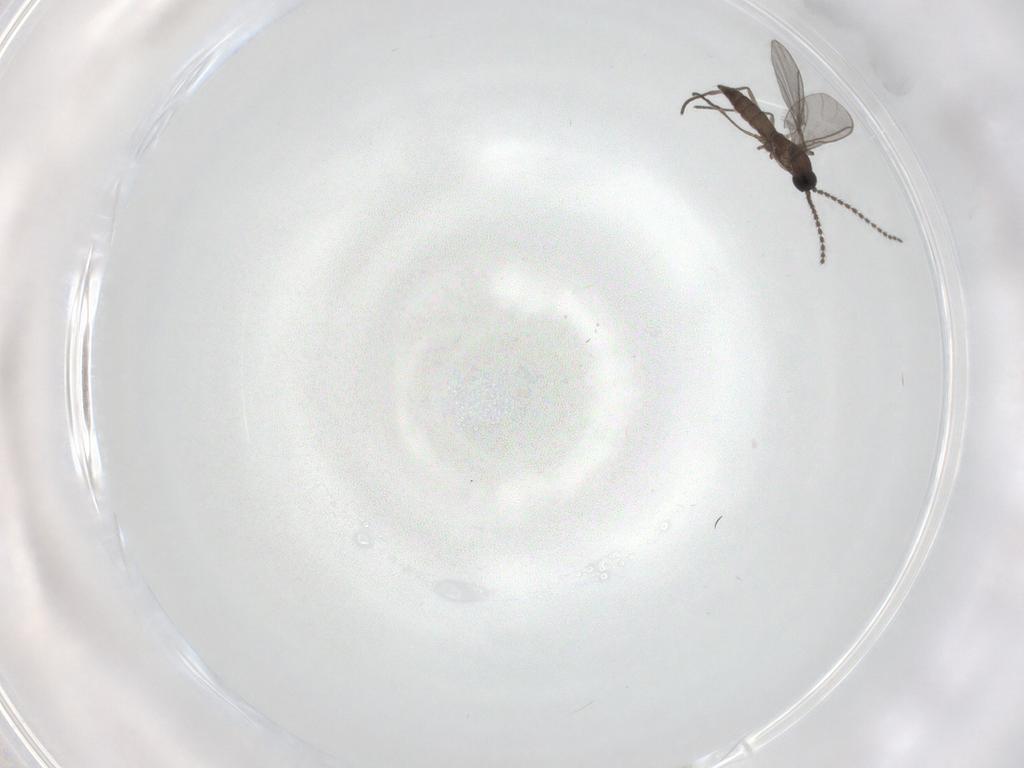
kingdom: Animalia
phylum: Arthropoda
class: Insecta
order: Diptera
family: Sciaridae
